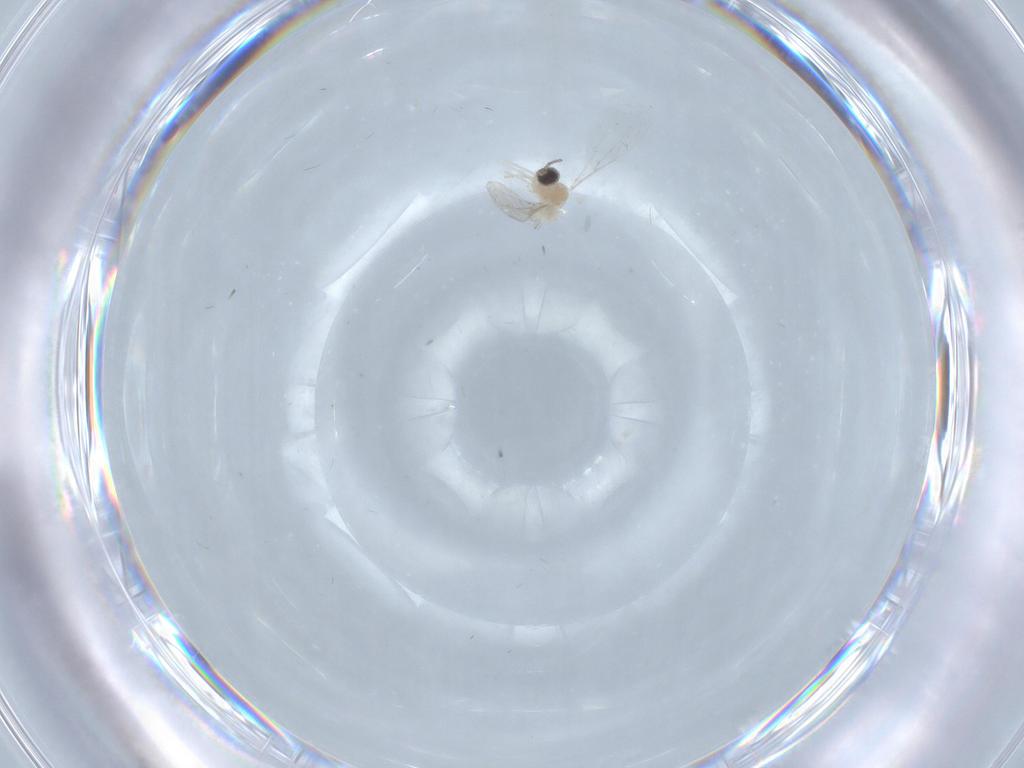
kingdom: Animalia
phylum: Arthropoda
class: Insecta
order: Diptera
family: Cecidomyiidae
